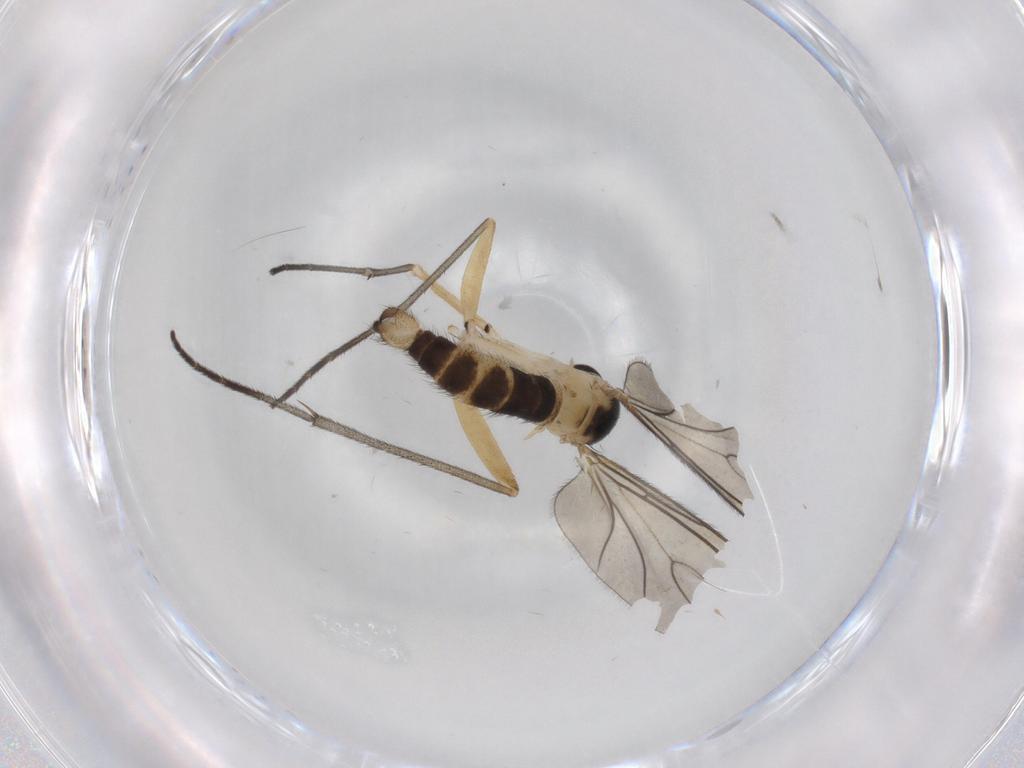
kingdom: Animalia
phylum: Arthropoda
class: Insecta
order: Diptera
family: Sciaridae
